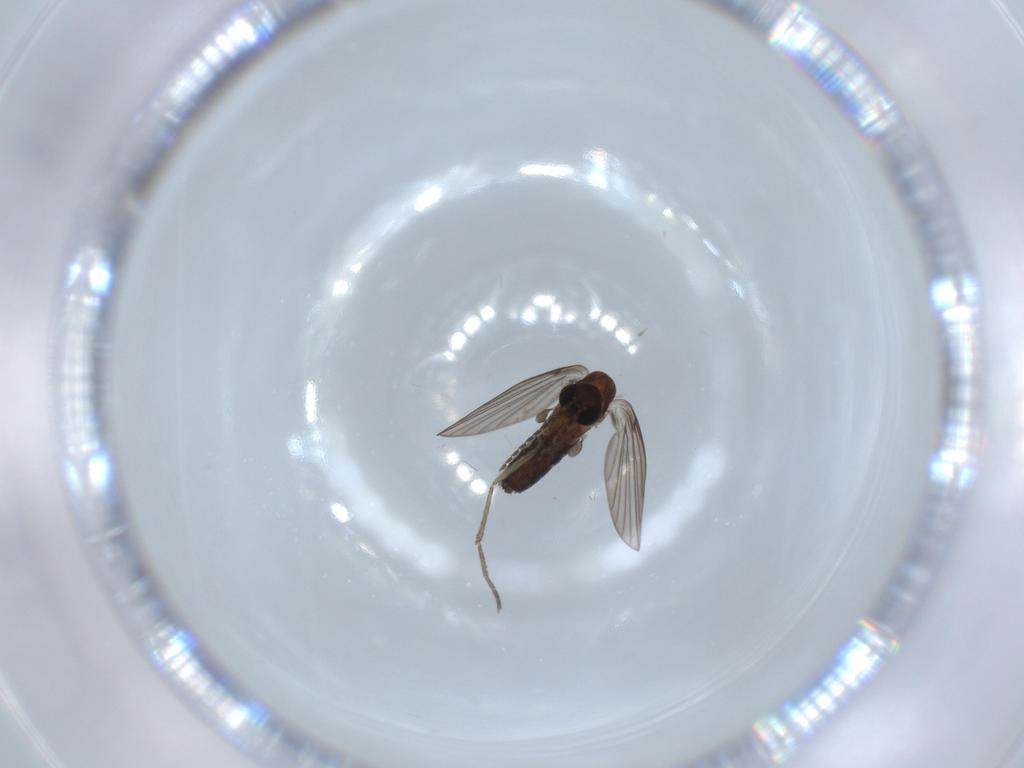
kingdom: Animalia
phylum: Arthropoda
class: Insecta
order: Diptera
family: Psychodidae
